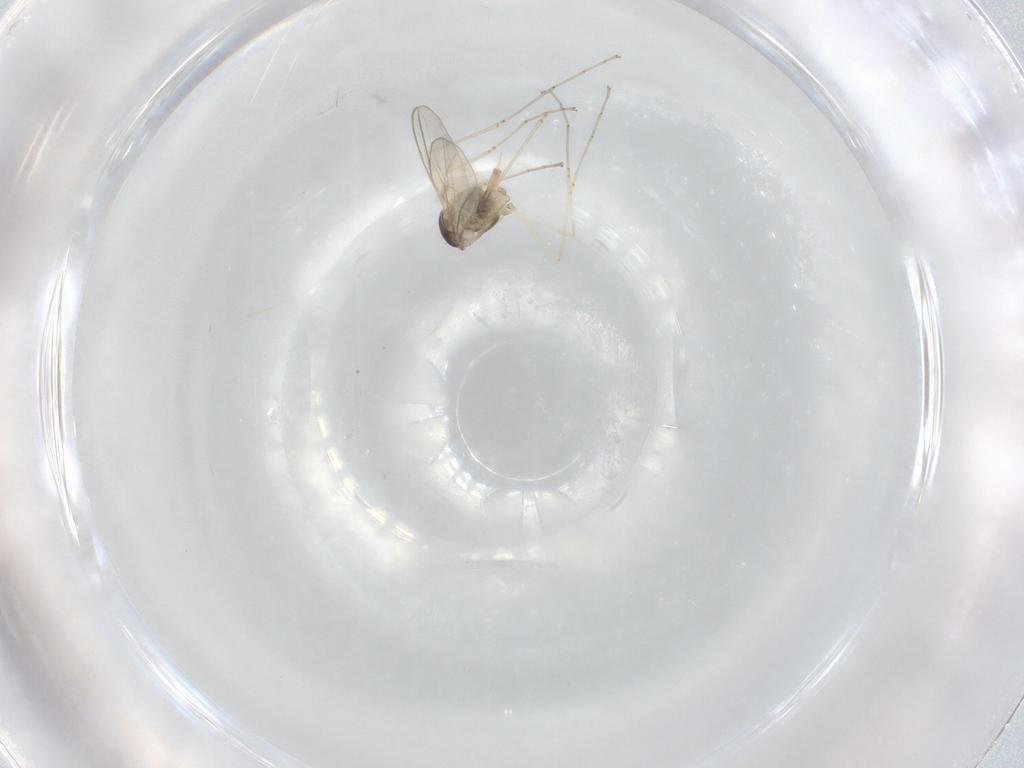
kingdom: Animalia
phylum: Arthropoda
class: Insecta
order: Diptera
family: Cecidomyiidae
